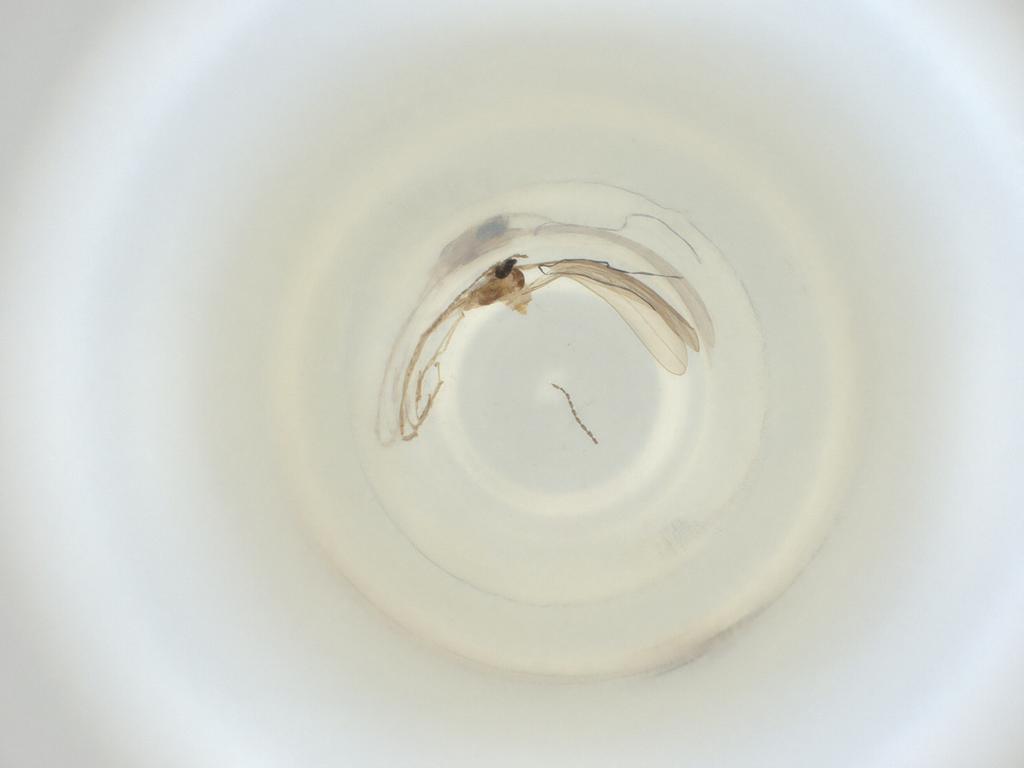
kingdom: Animalia
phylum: Arthropoda
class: Insecta
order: Diptera
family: Cecidomyiidae
